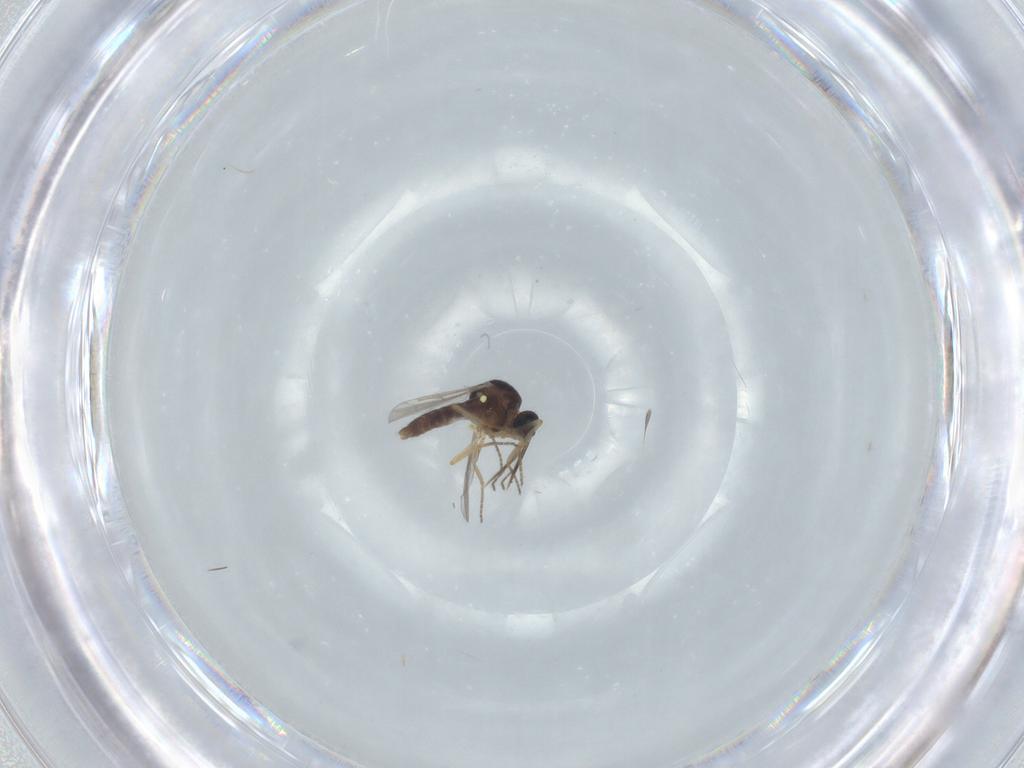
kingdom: Animalia
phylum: Arthropoda
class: Insecta
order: Diptera
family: Ceratopogonidae
